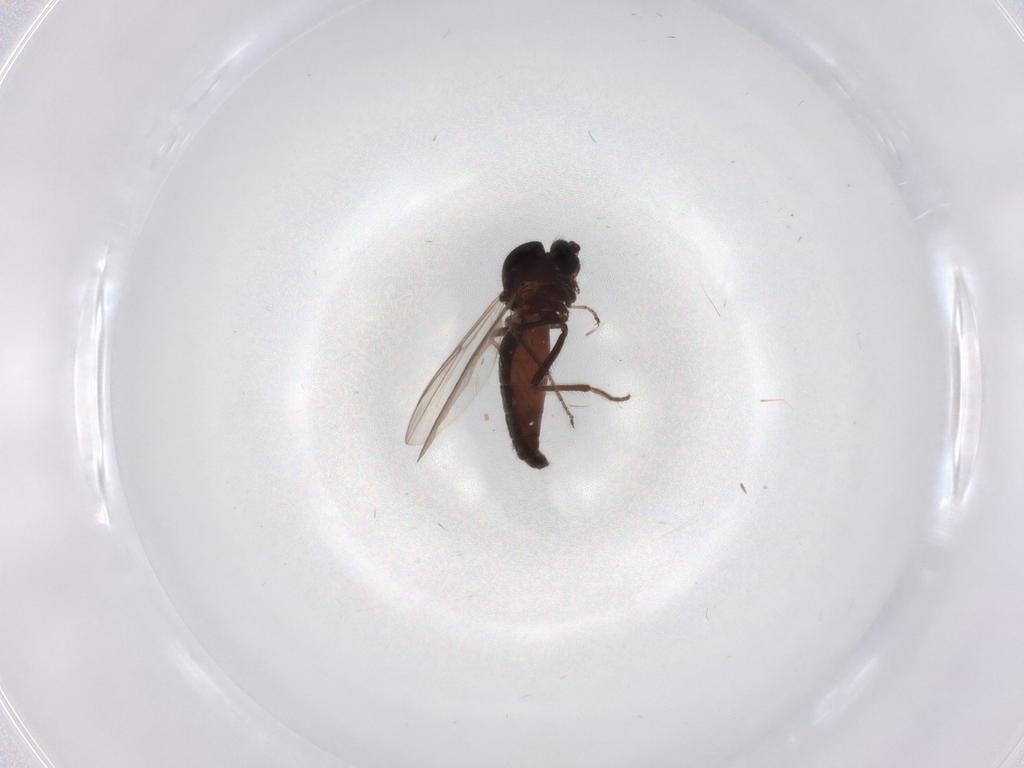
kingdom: Animalia
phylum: Arthropoda
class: Insecta
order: Diptera
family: Ceratopogonidae
